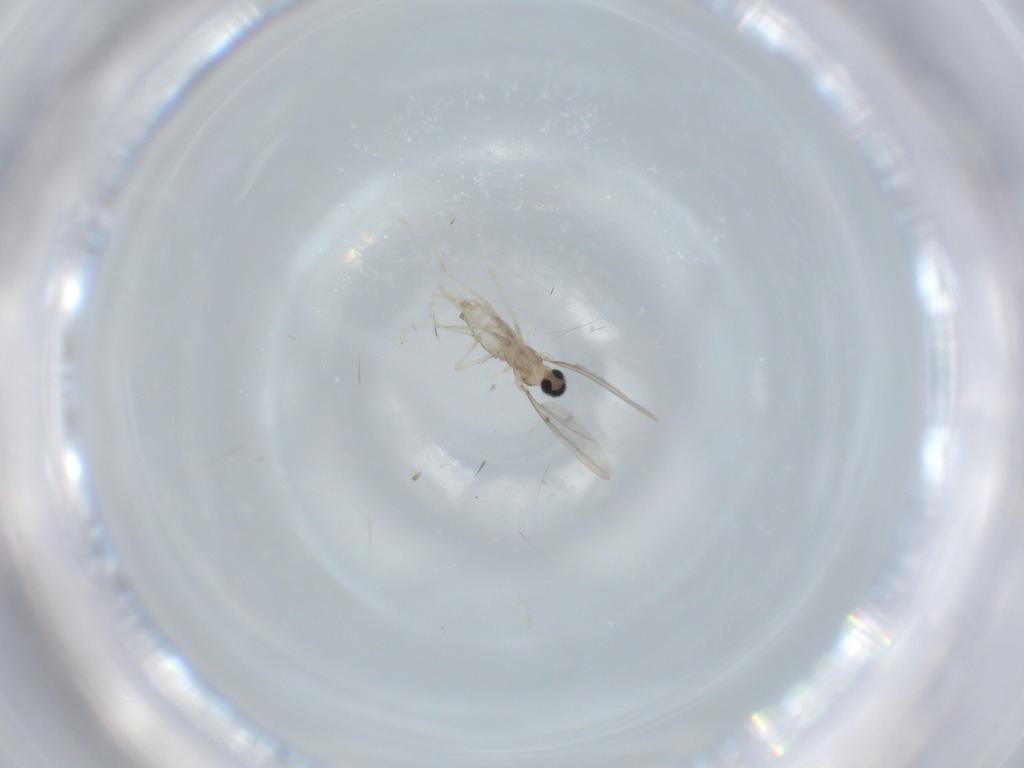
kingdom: Animalia
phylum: Arthropoda
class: Insecta
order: Diptera
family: Cecidomyiidae
